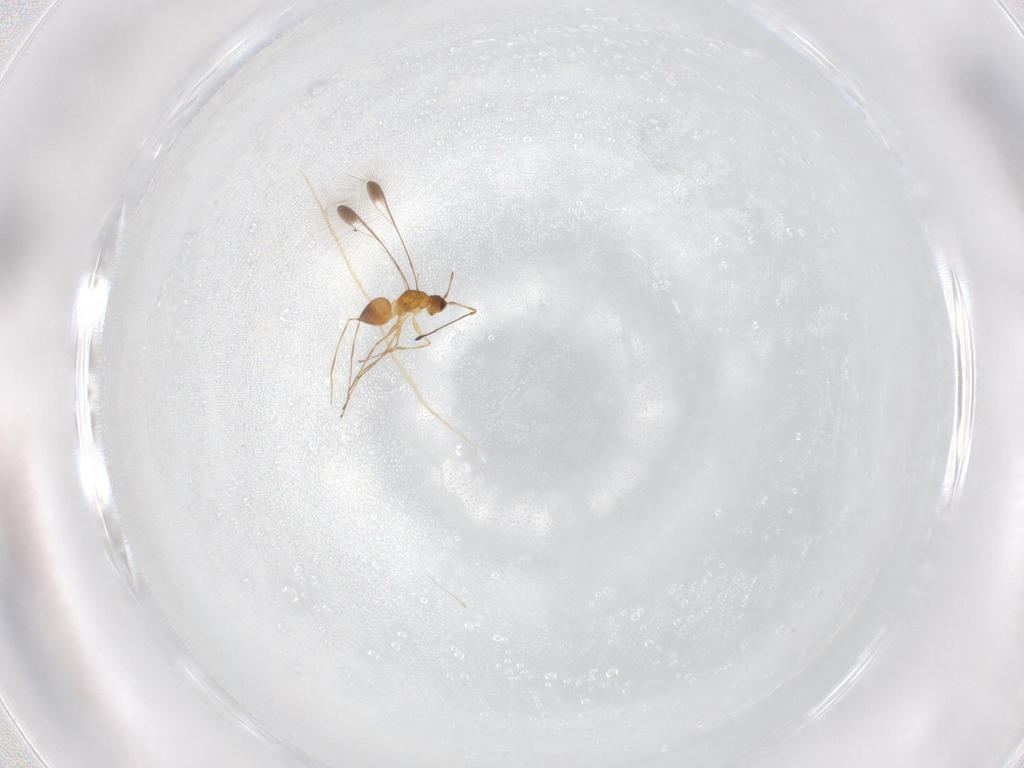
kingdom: Animalia
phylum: Arthropoda
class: Insecta
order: Hymenoptera
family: Mymaridae
